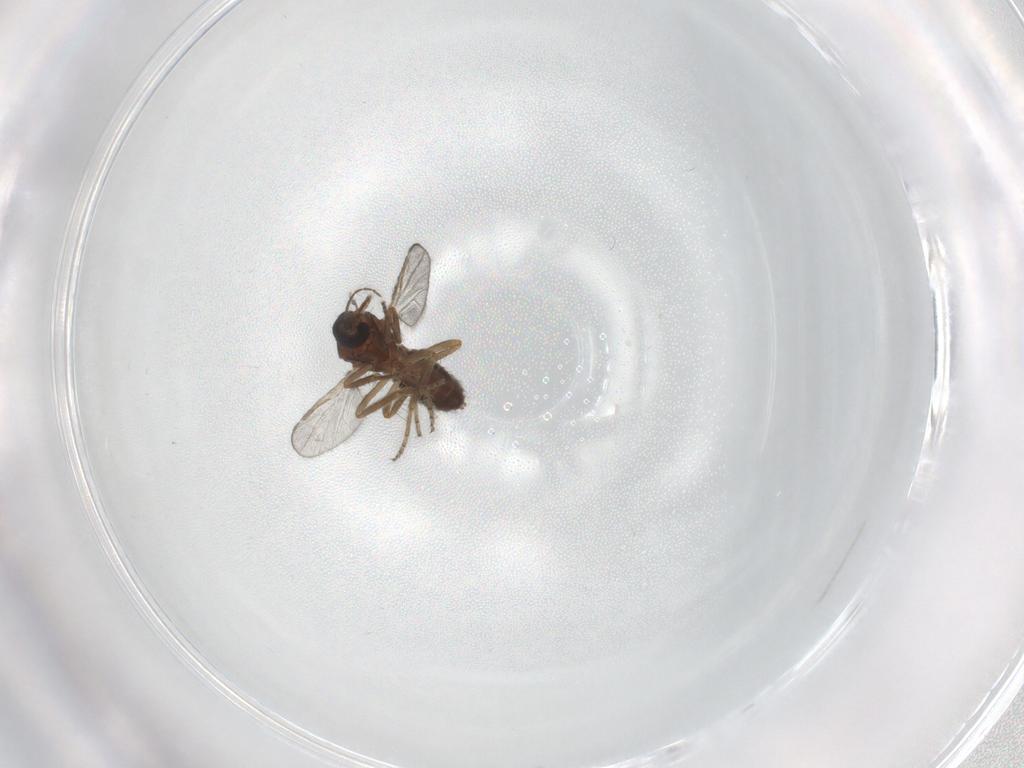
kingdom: Animalia
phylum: Arthropoda
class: Insecta
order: Diptera
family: Ceratopogonidae
